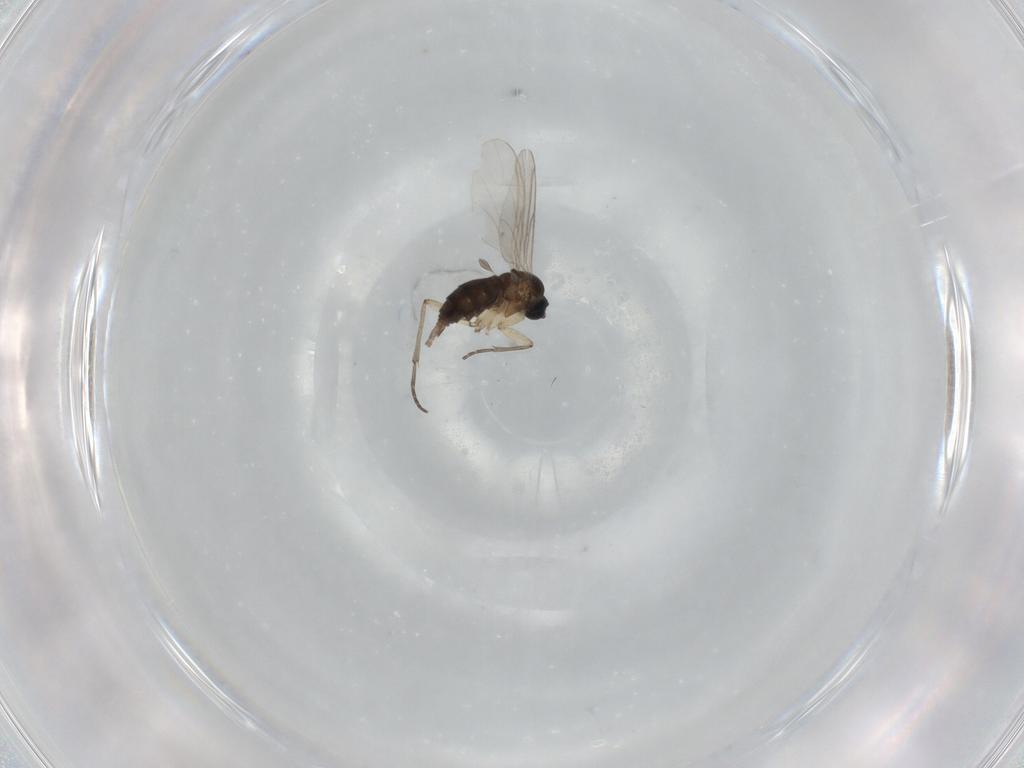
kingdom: Animalia
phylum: Arthropoda
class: Insecta
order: Diptera
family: Sciaridae
